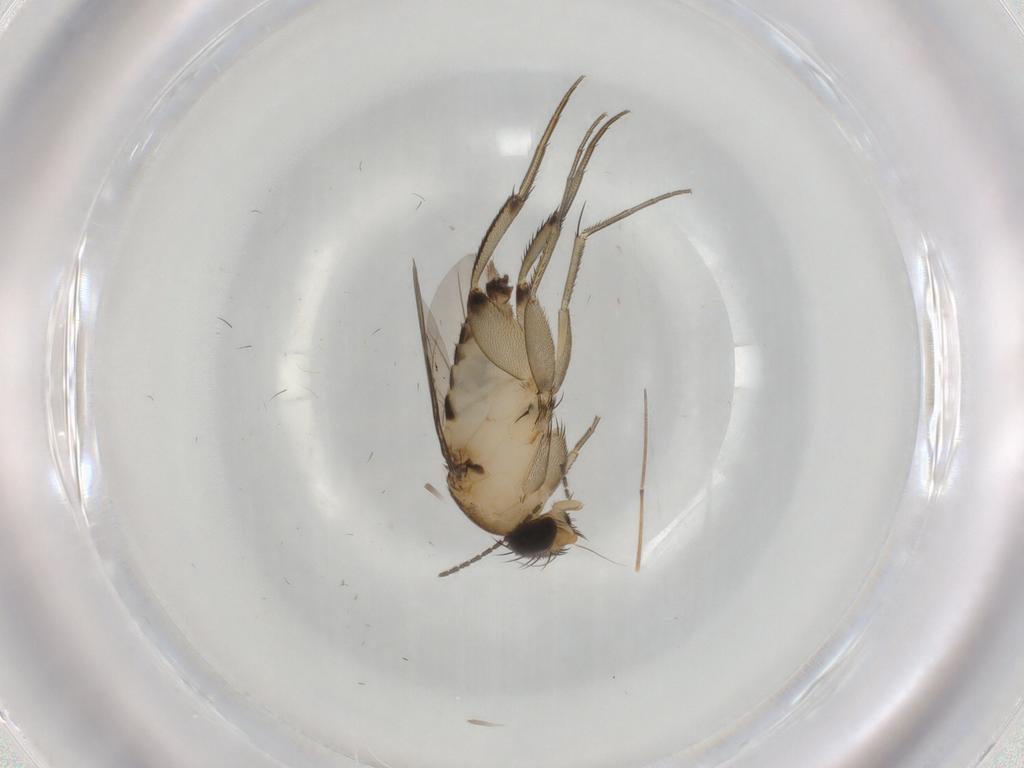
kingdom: Animalia
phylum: Arthropoda
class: Insecta
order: Diptera
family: Phoridae
